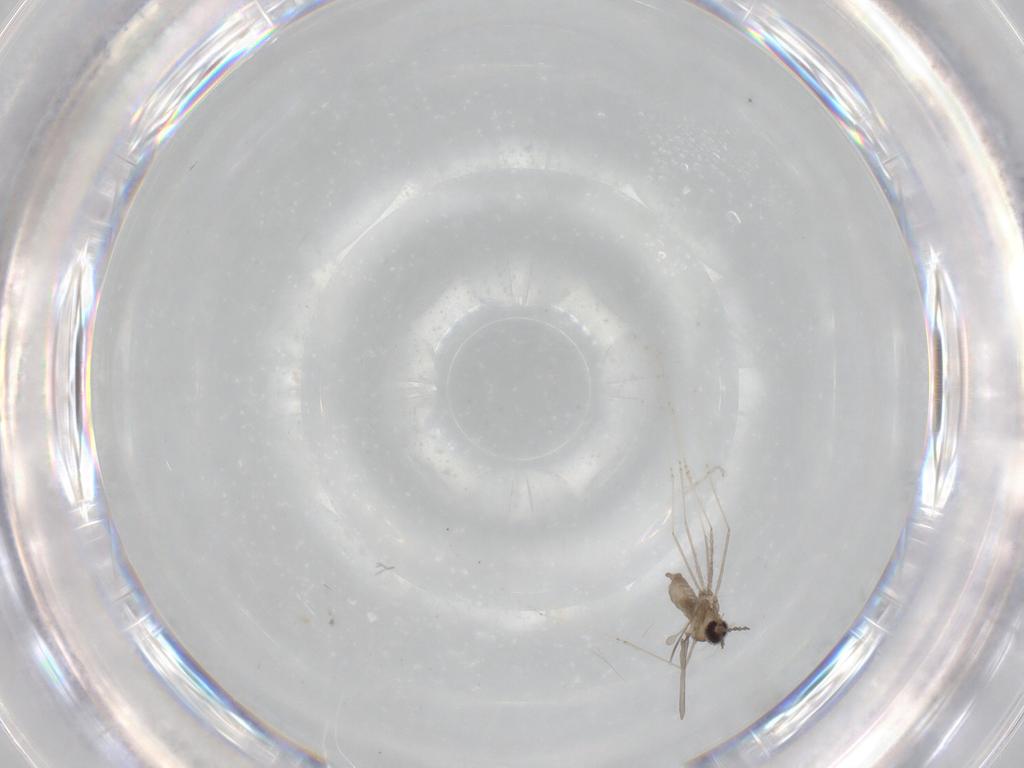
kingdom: Animalia
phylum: Arthropoda
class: Insecta
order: Diptera
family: Cecidomyiidae
